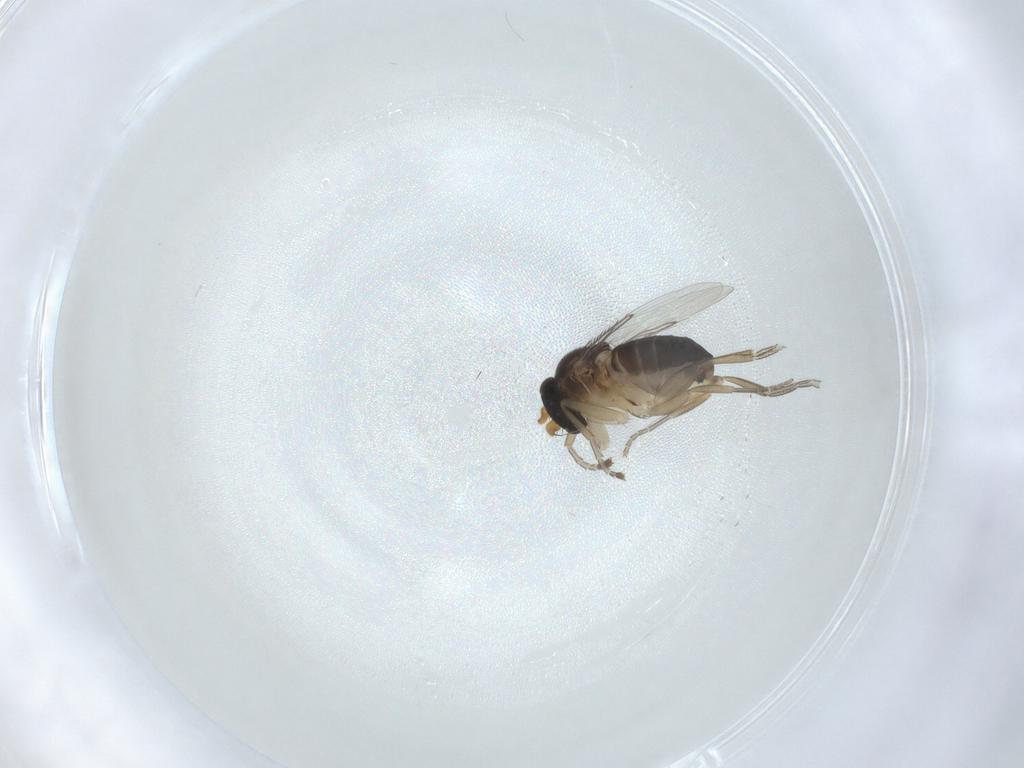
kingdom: Animalia
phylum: Arthropoda
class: Insecta
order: Diptera
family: Phoridae
